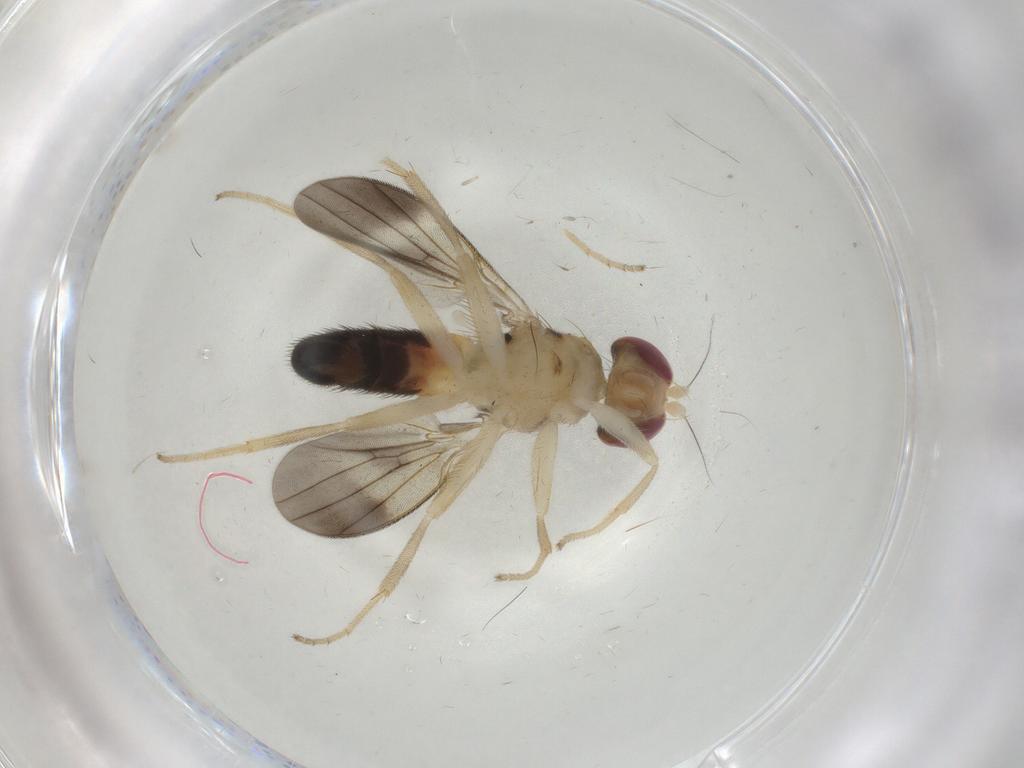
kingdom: Animalia
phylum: Arthropoda
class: Insecta
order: Diptera
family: Clusiidae
